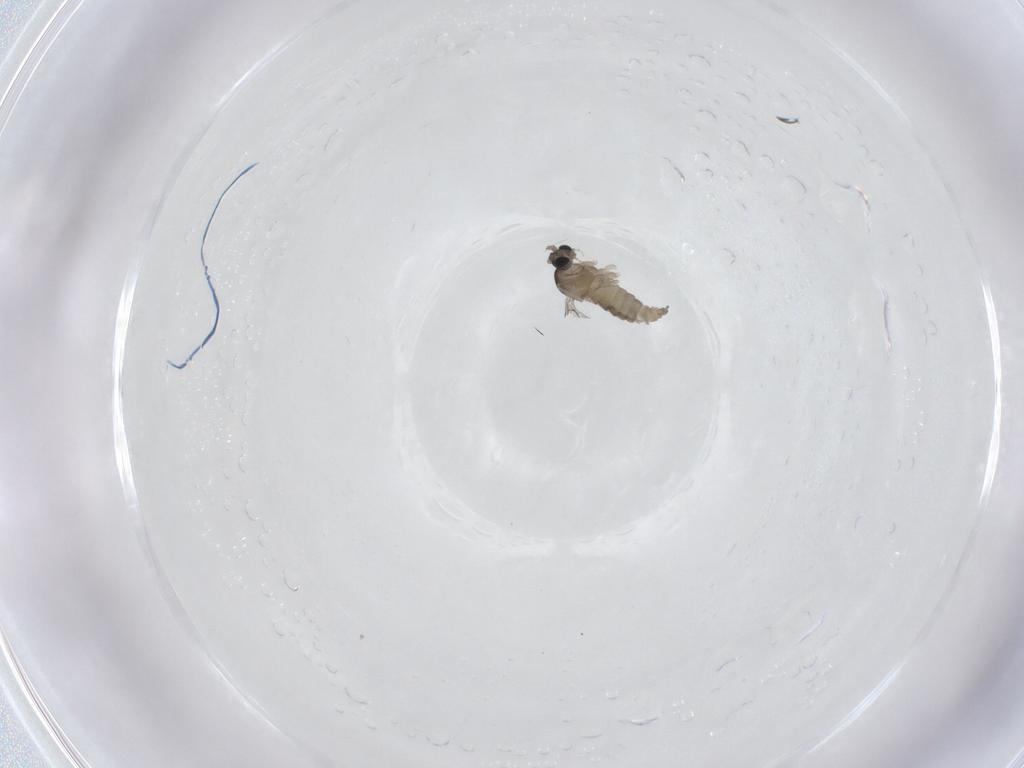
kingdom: Animalia
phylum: Arthropoda
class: Insecta
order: Diptera
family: Cecidomyiidae
